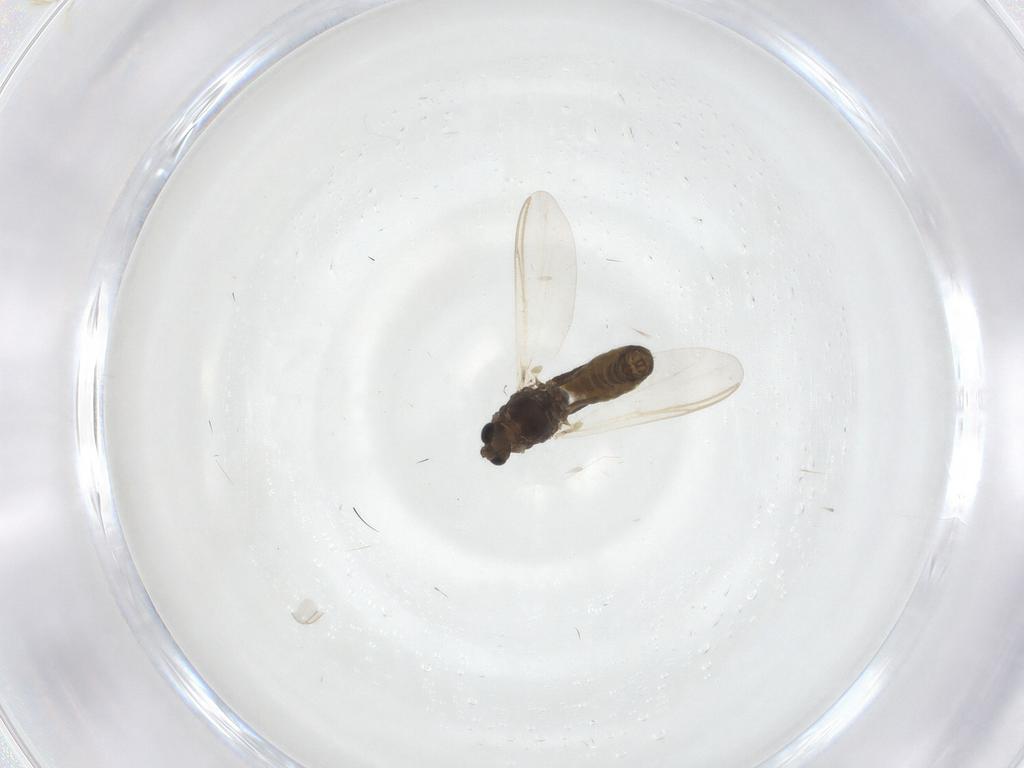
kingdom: Animalia
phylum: Arthropoda
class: Insecta
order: Diptera
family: Chironomidae
